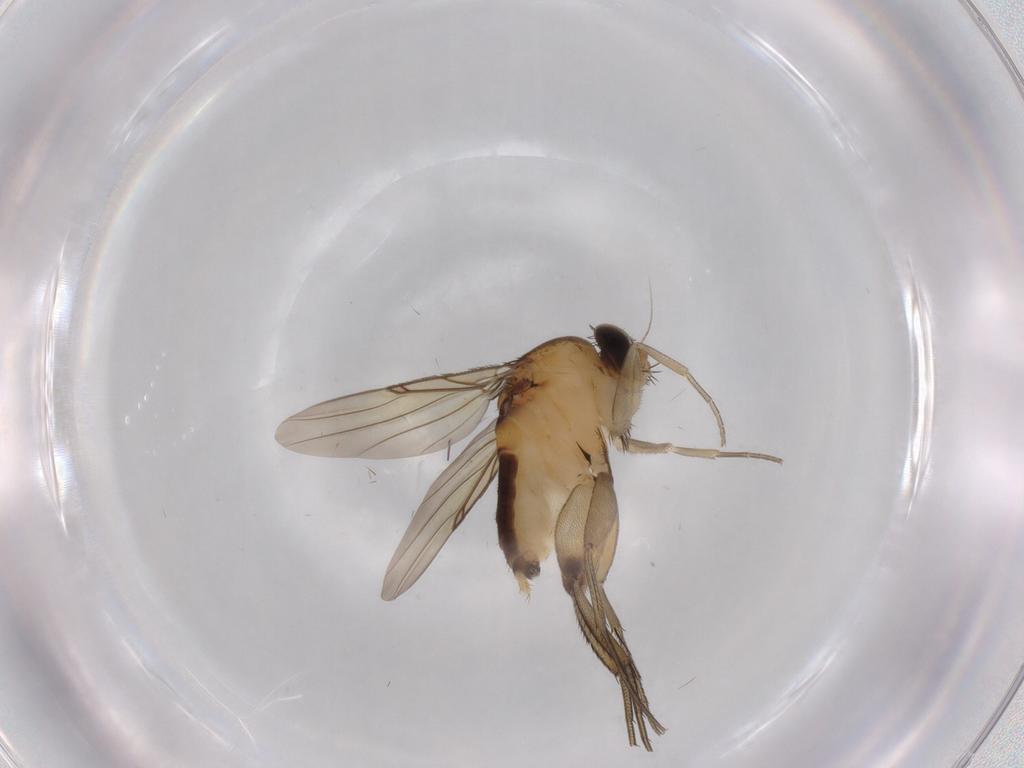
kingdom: Animalia
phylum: Arthropoda
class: Insecta
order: Diptera
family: Phoridae
